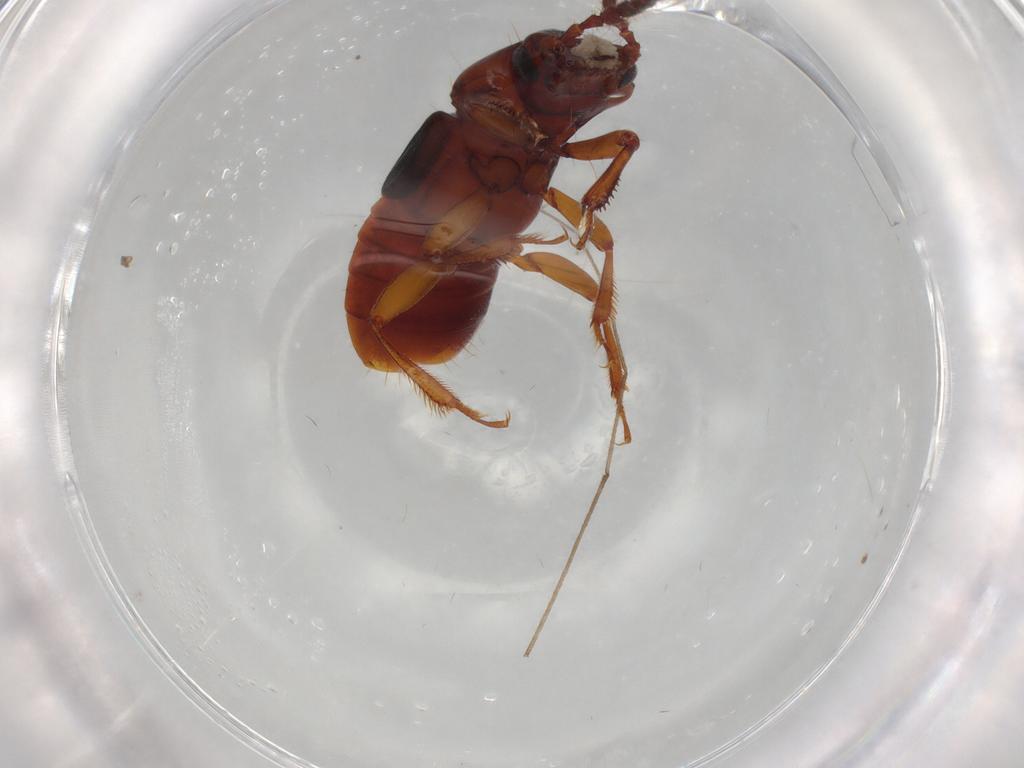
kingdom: Animalia
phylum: Arthropoda
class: Insecta
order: Coleoptera
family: Staphylinidae
